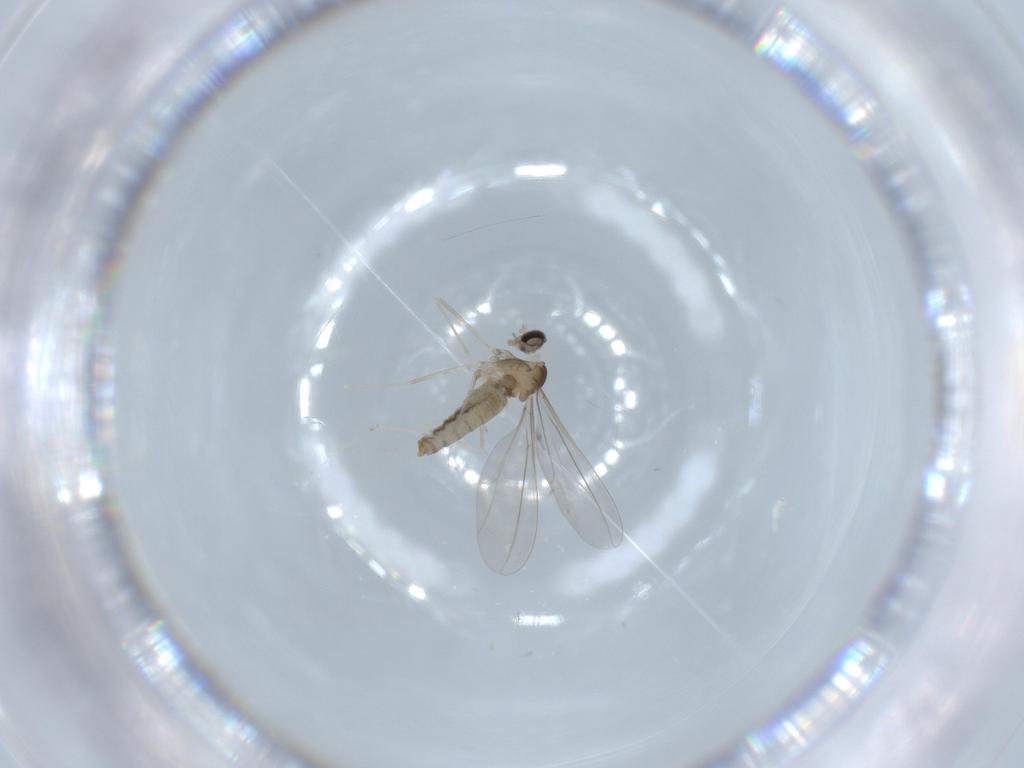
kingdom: Animalia
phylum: Arthropoda
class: Insecta
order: Diptera
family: Cecidomyiidae
